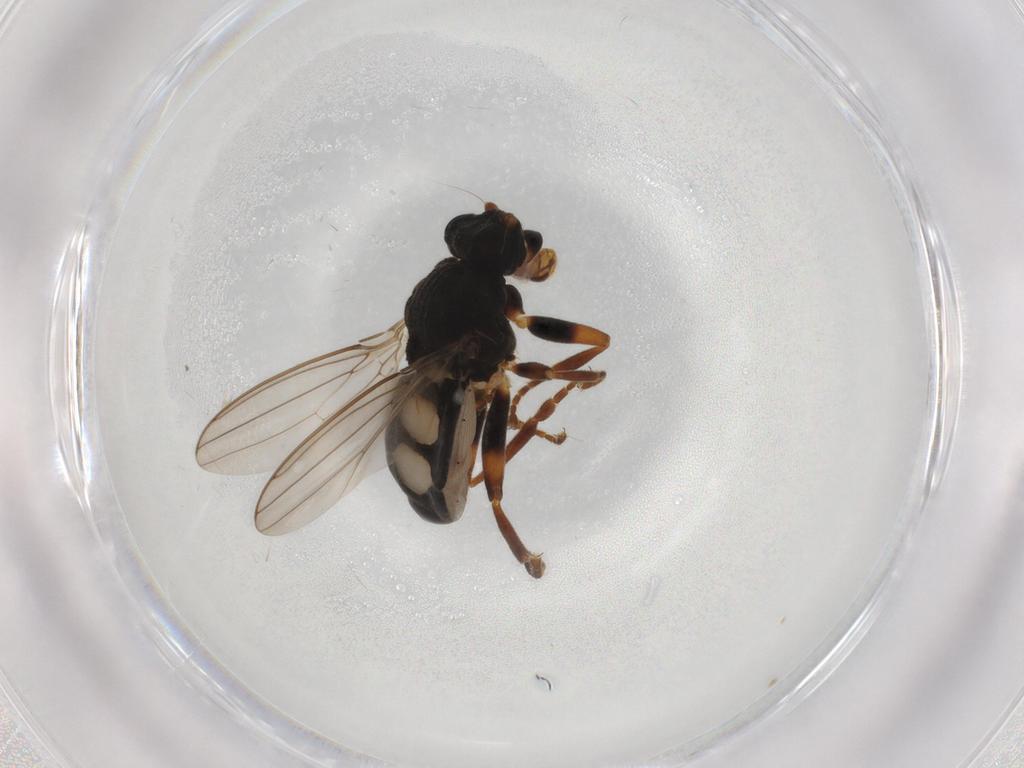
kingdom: Animalia
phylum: Arthropoda
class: Insecta
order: Diptera
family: Sphaeroceridae
